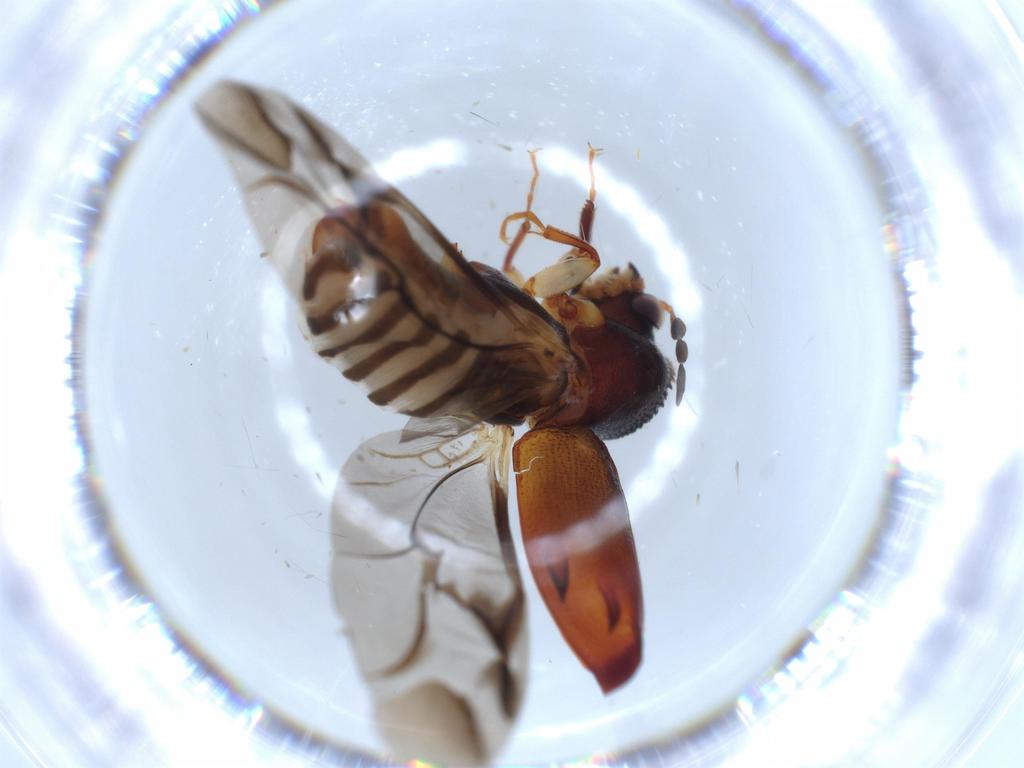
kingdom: Animalia
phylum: Arthropoda
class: Insecta
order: Coleoptera
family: Bostrichidae
